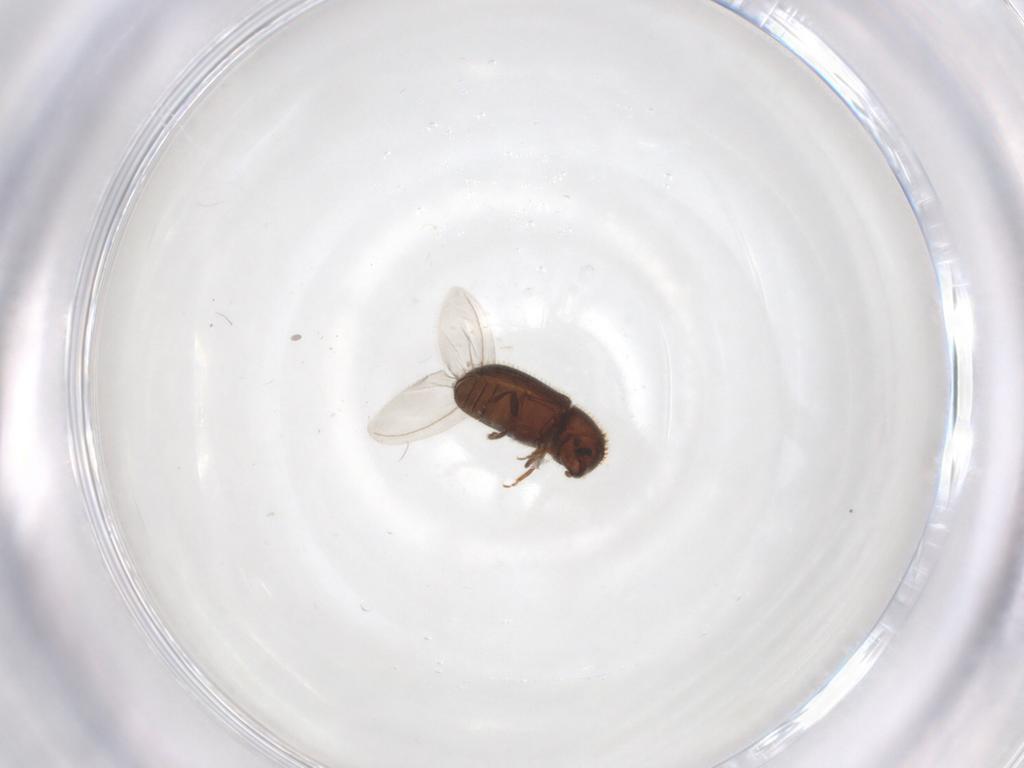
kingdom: Animalia
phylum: Arthropoda
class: Insecta
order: Coleoptera
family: Curculionidae
